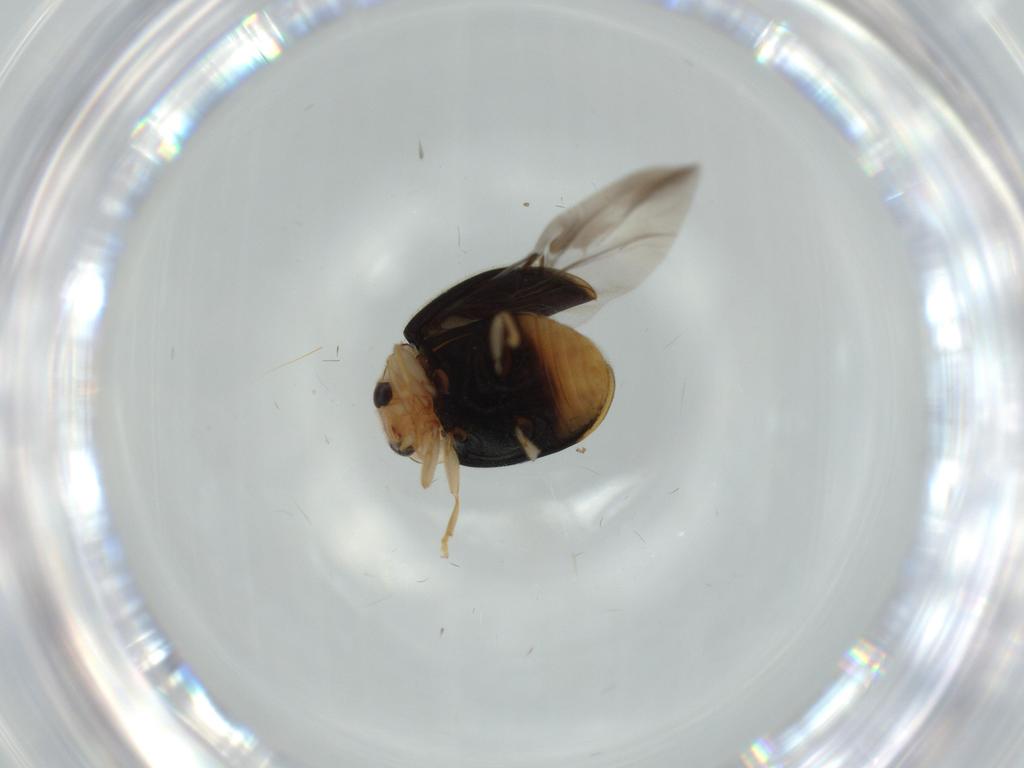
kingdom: Animalia
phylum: Arthropoda
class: Insecta
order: Coleoptera
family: Coccinellidae
